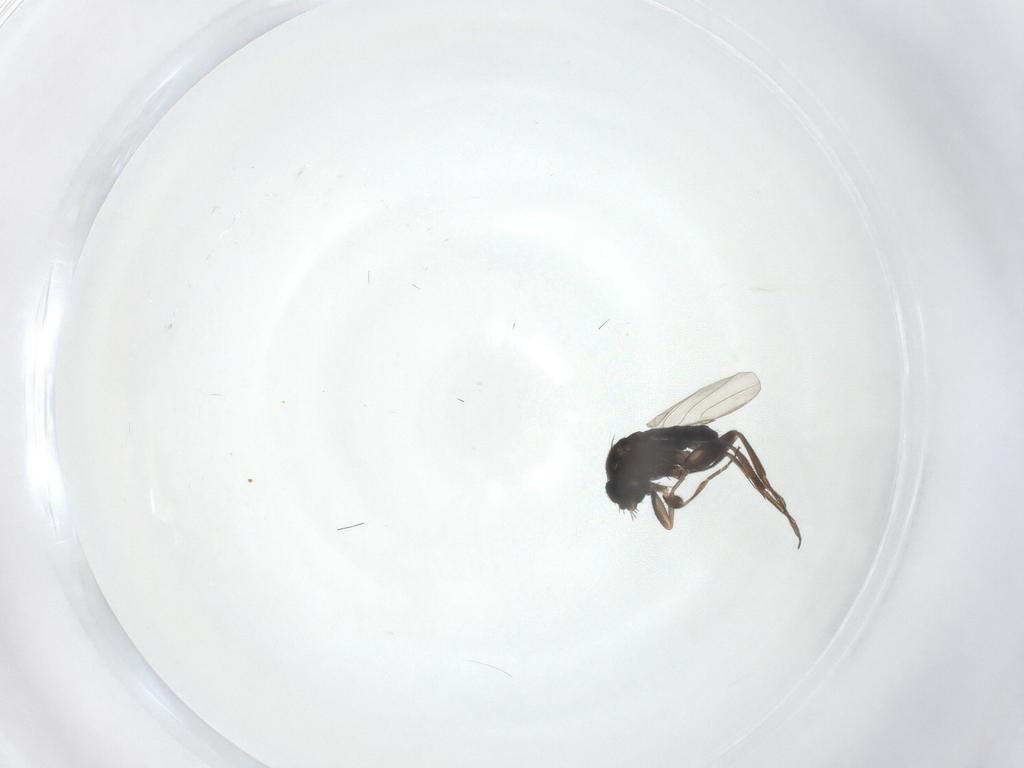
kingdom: Animalia
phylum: Arthropoda
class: Insecta
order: Diptera
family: Phoridae
